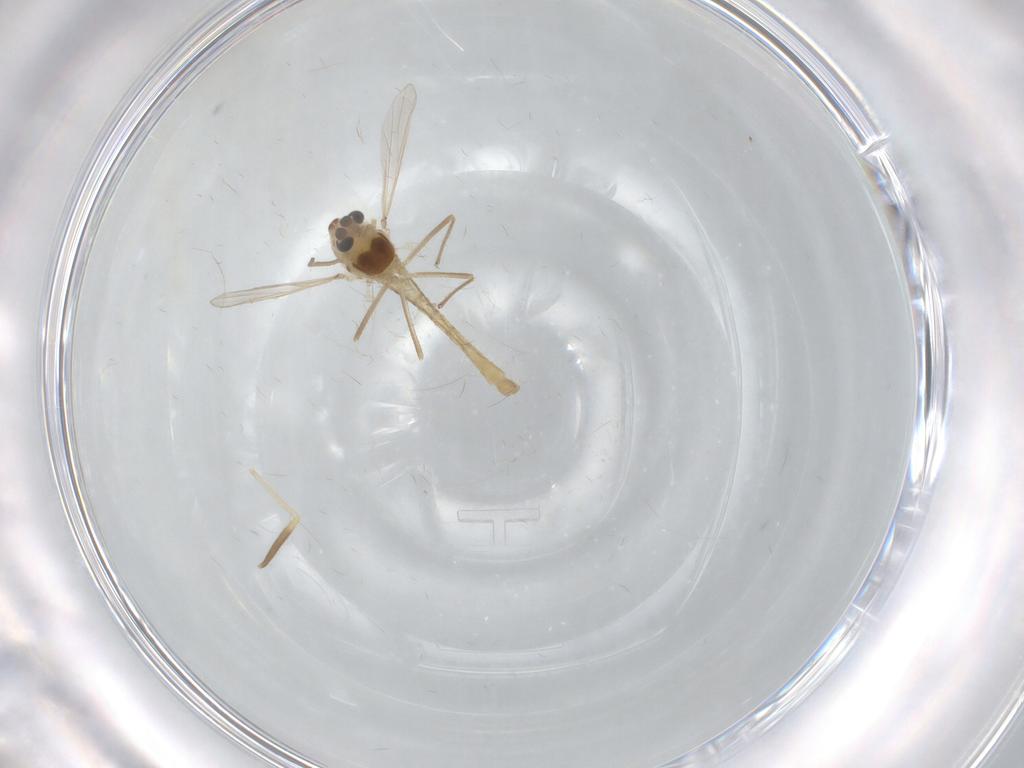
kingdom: Animalia
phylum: Arthropoda
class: Insecta
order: Diptera
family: Chironomidae
